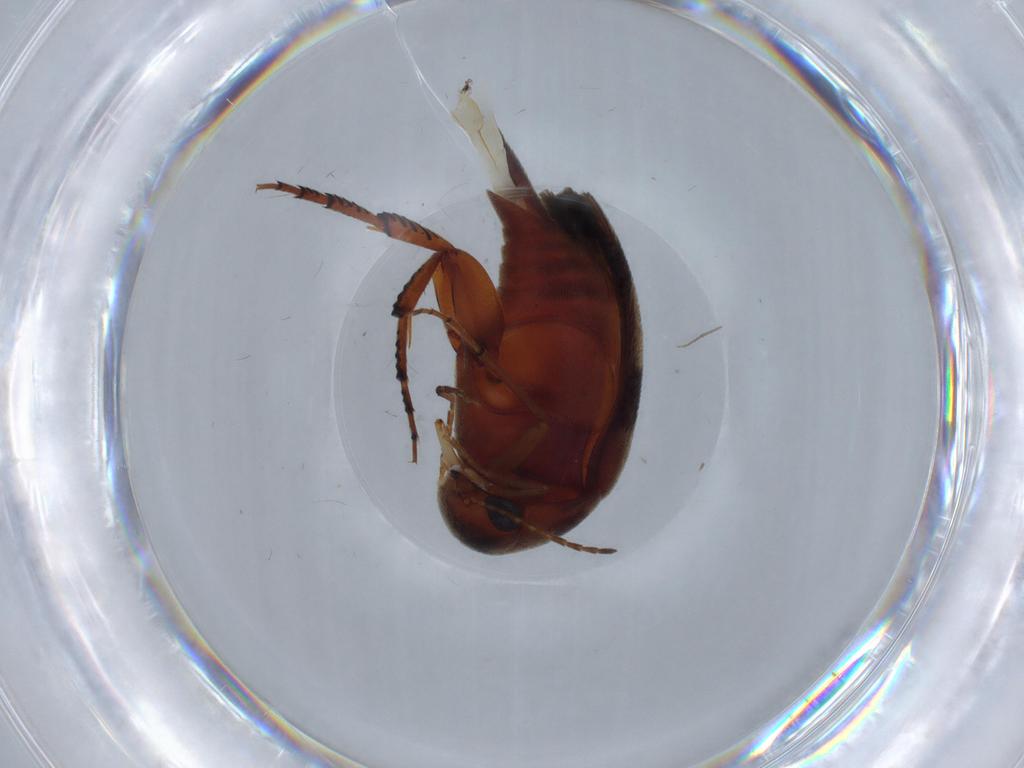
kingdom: Animalia
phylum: Arthropoda
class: Insecta
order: Coleoptera
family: Mordellidae
